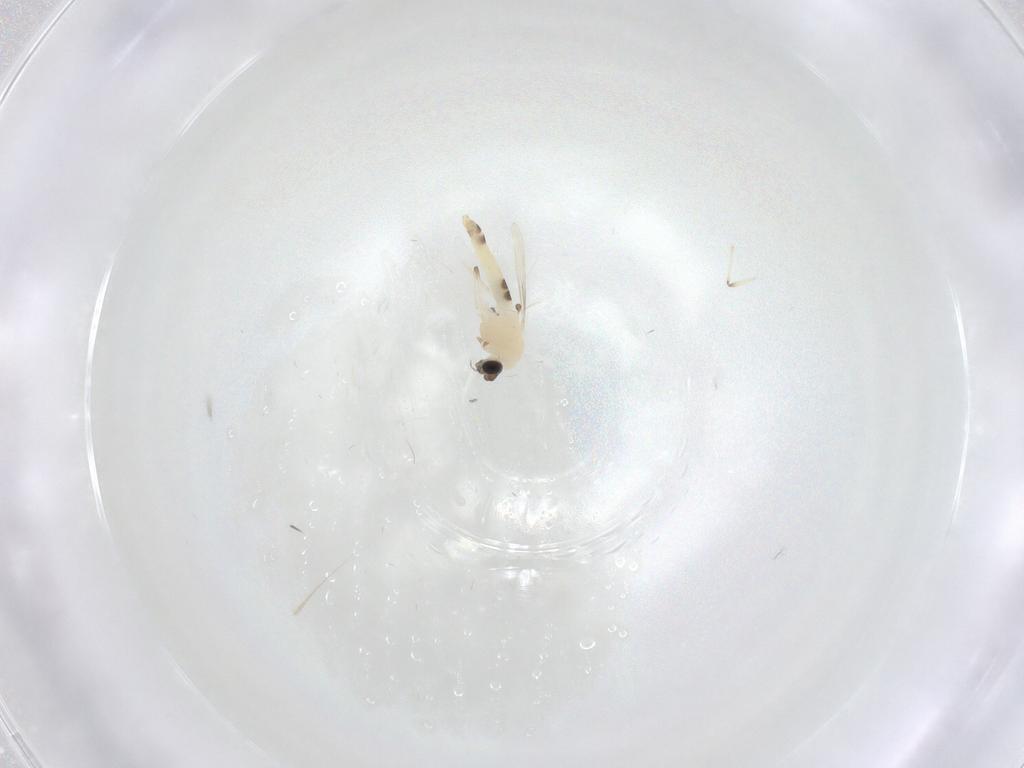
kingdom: Animalia
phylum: Arthropoda
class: Insecta
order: Diptera
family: Chironomidae
